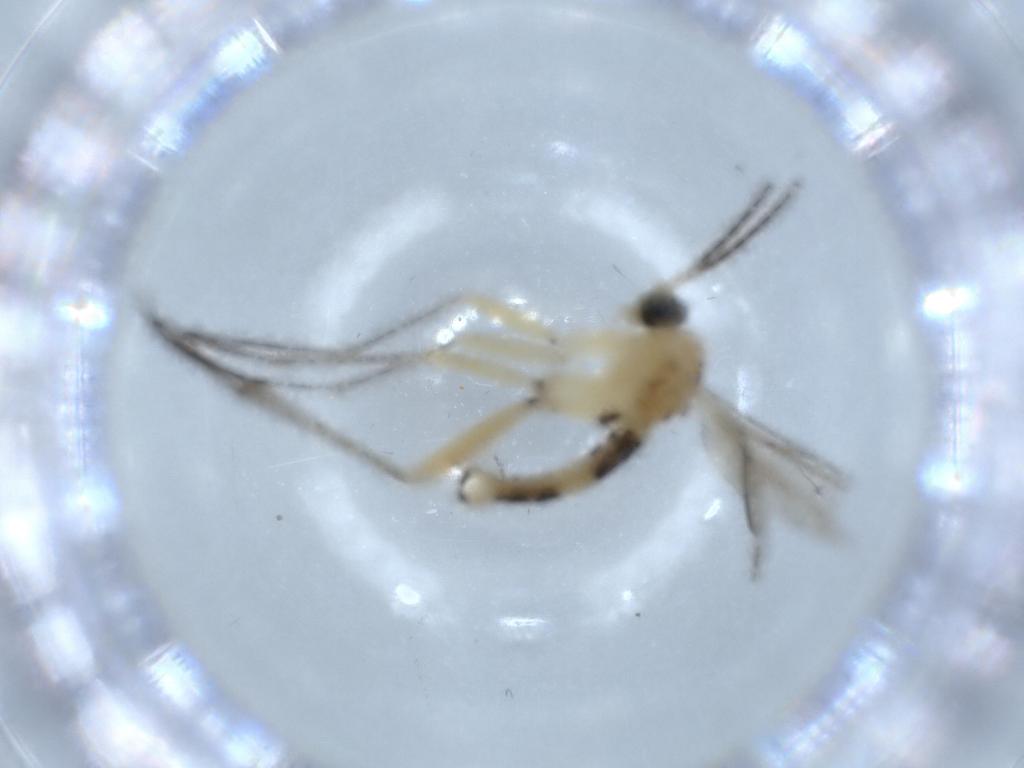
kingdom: Animalia
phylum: Arthropoda
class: Insecta
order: Diptera
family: Sciaridae
